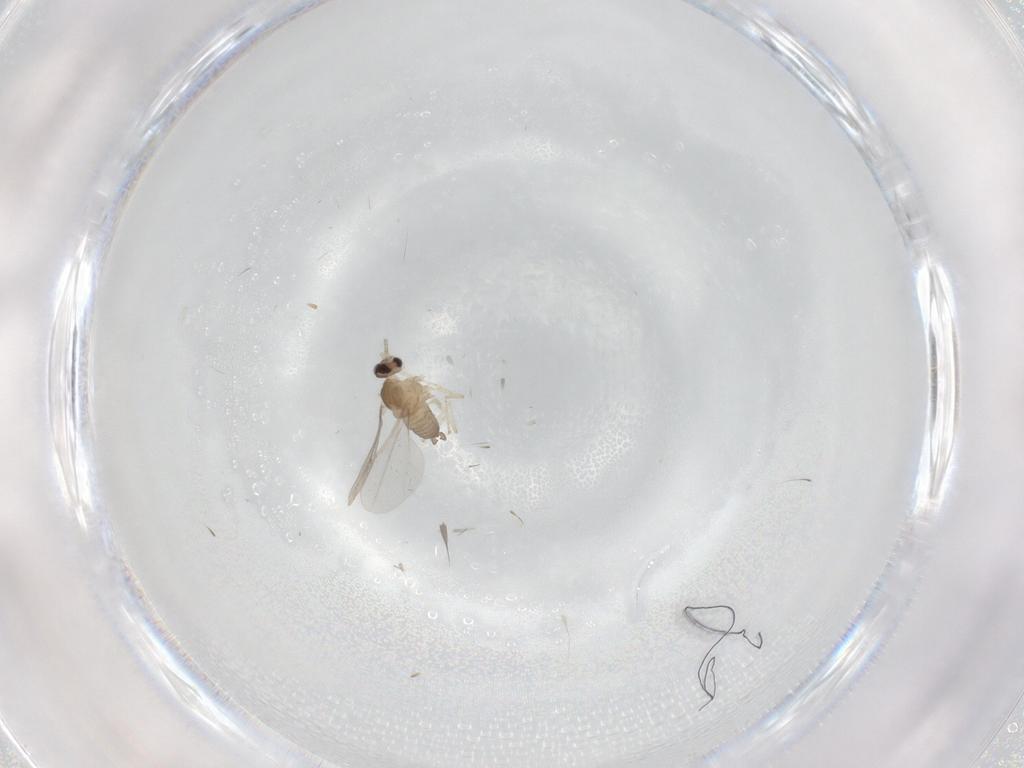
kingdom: Animalia
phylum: Arthropoda
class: Insecta
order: Diptera
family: Cecidomyiidae
